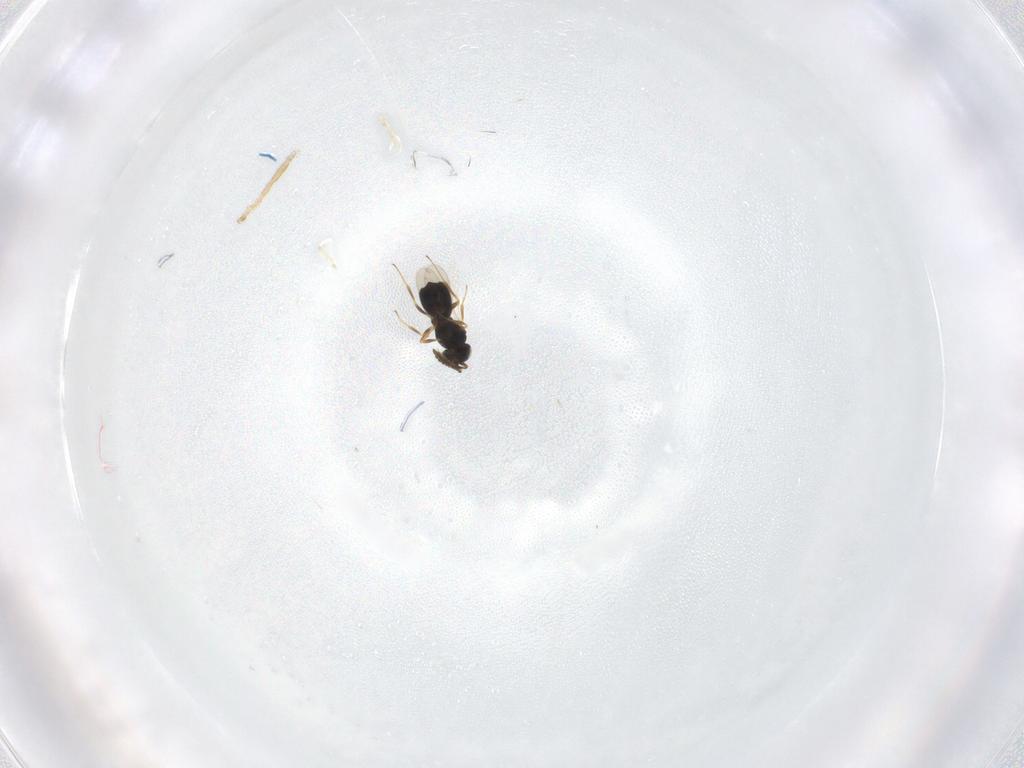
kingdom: Animalia
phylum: Arthropoda
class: Insecta
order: Hymenoptera
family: Scelionidae
